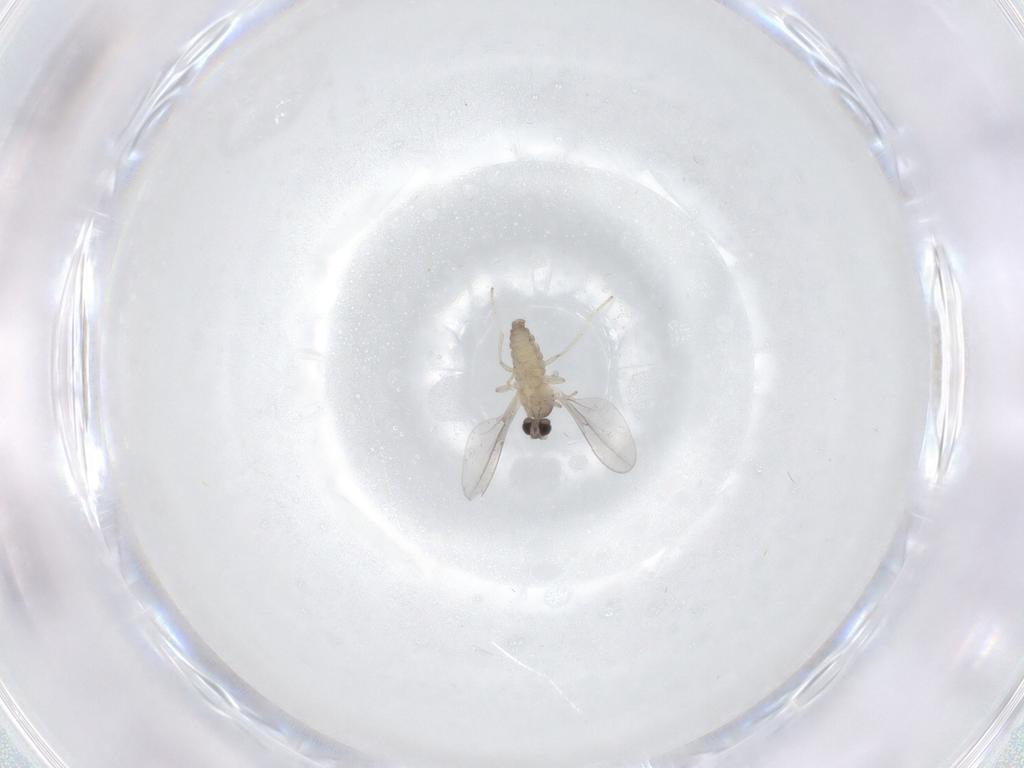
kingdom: Animalia
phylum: Arthropoda
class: Insecta
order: Diptera
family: Cecidomyiidae
